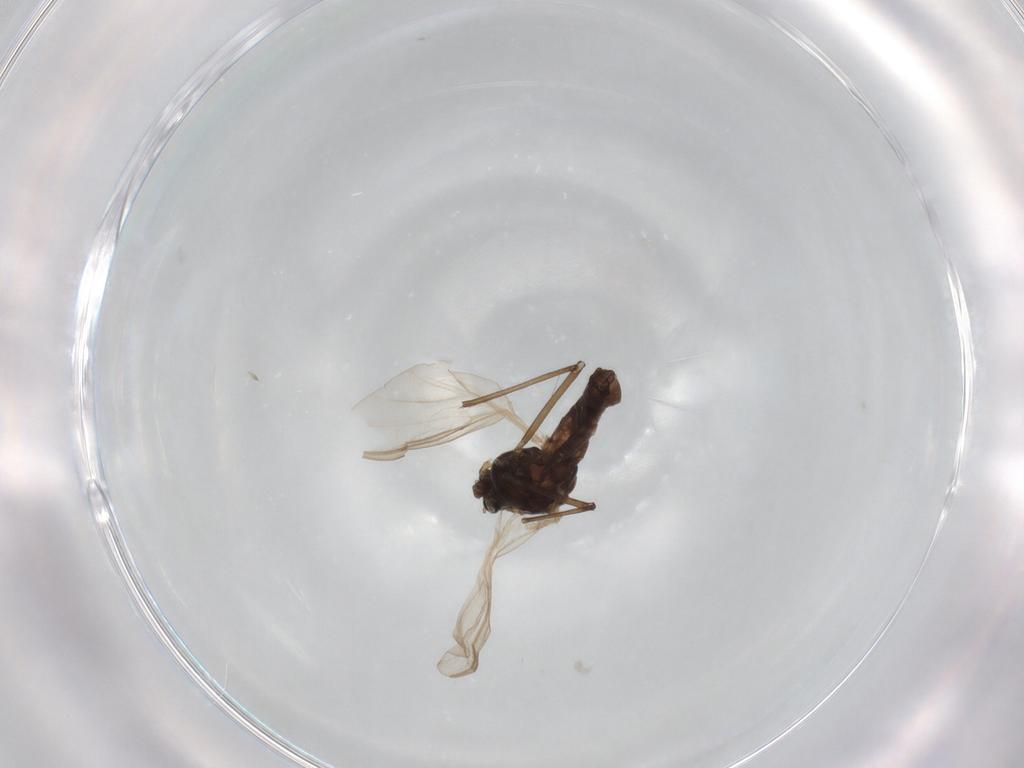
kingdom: Animalia
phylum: Arthropoda
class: Insecta
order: Diptera
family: Chironomidae
